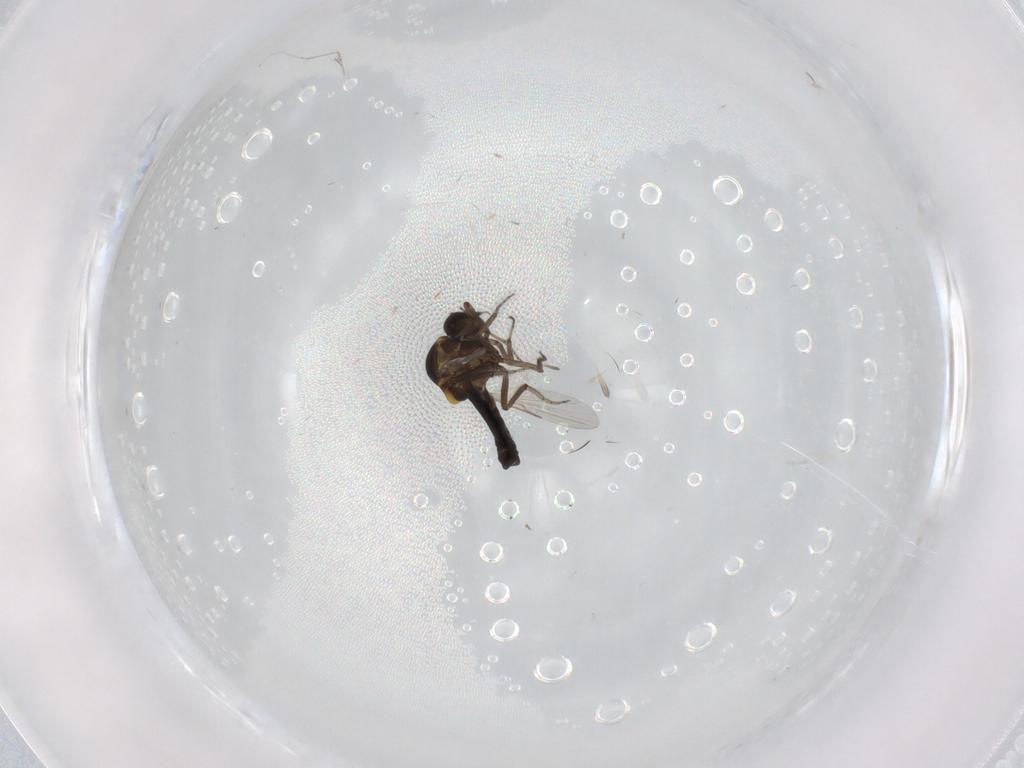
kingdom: Animalia
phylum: Arthropoda
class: Insecta
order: Diptera
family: Ceratopogonidae
